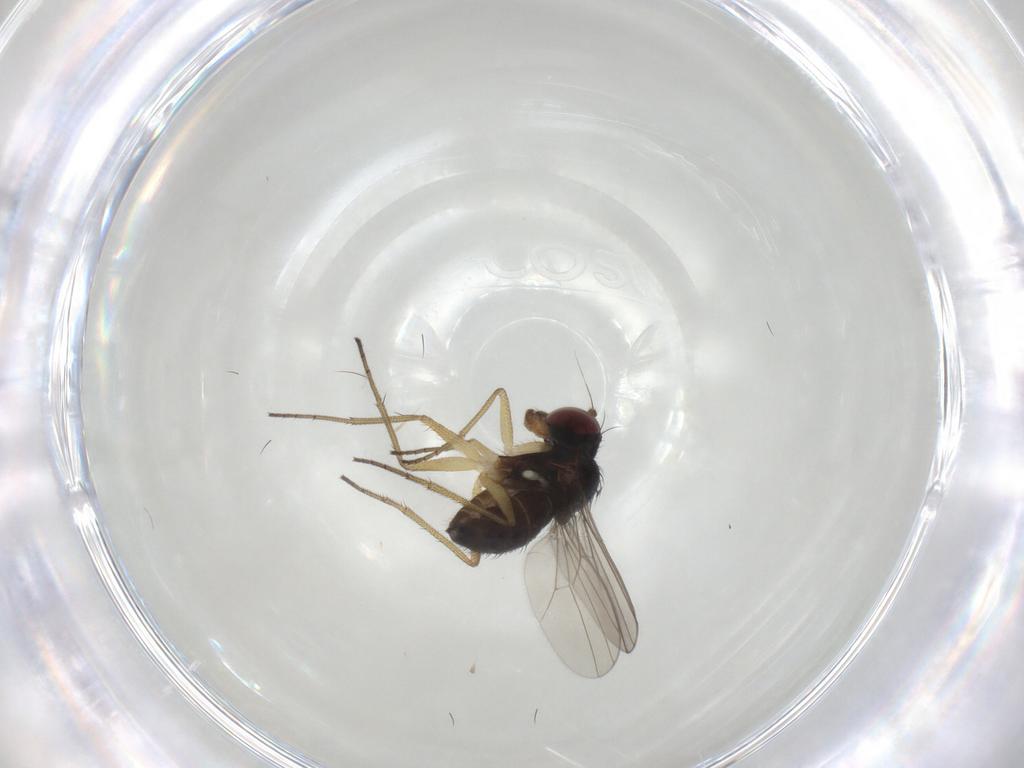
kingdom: Animalia
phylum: Arthropoda
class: Insecta
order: Diptera
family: Dolichopodidae
